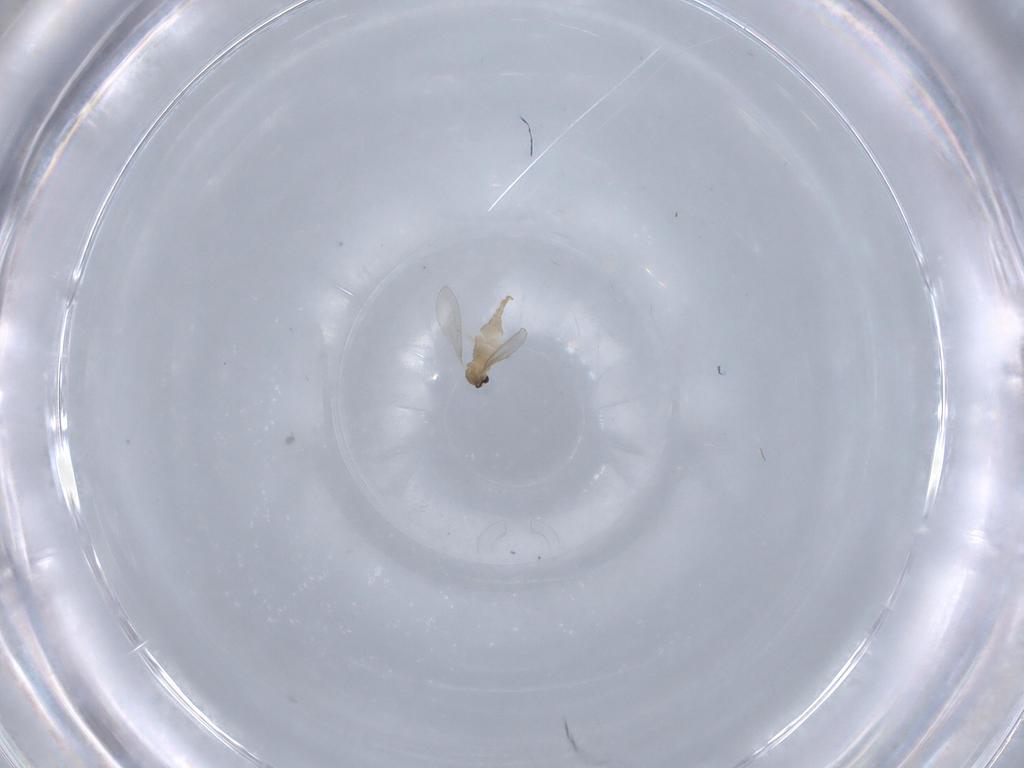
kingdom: Animalia
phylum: Arthropoda
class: Insecta
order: Diptera
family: Cecidomyiidae
